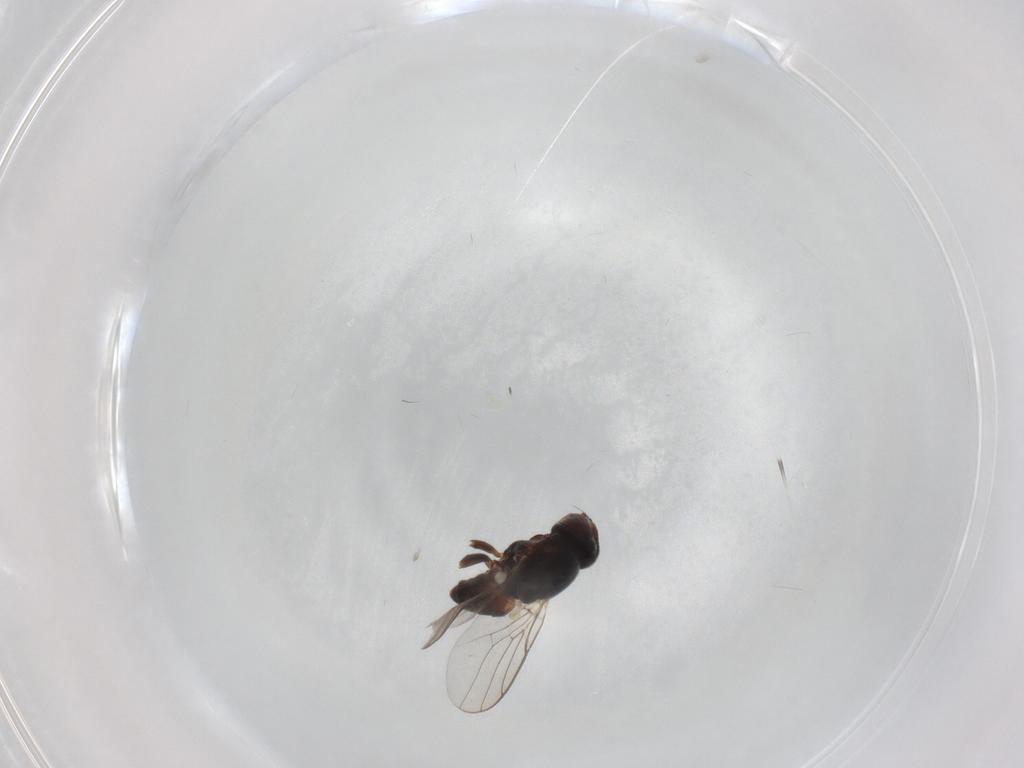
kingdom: Animalia
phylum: Arthropoda
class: Insecta
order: Diptera
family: Chloropidae
